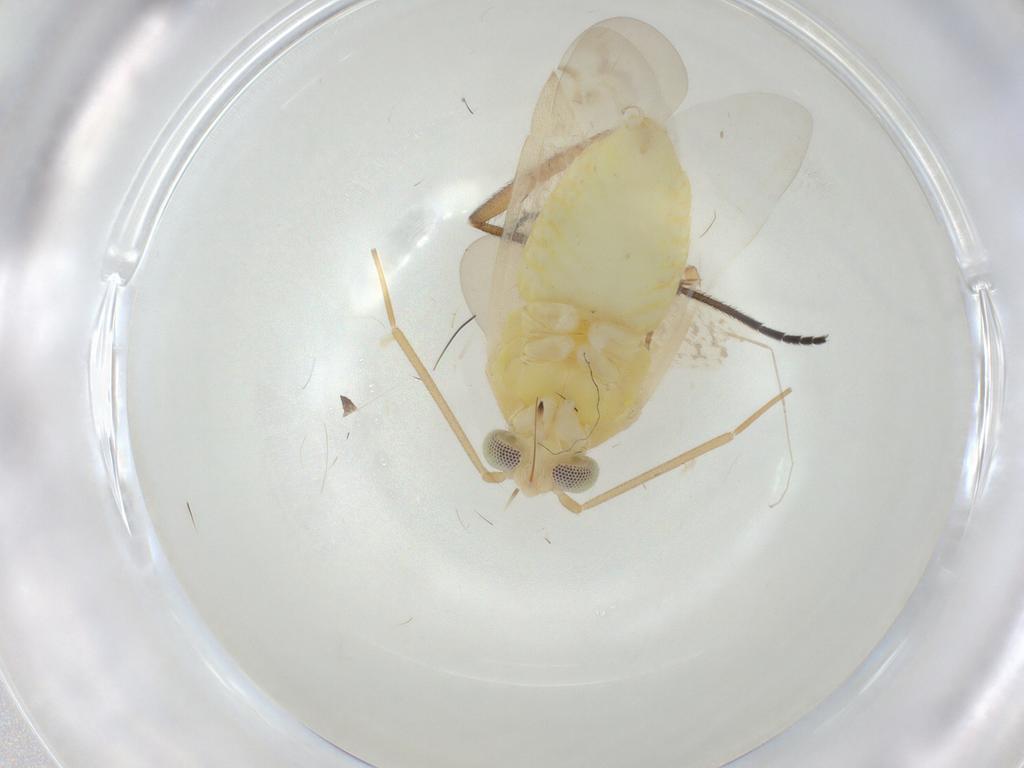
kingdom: Animalia
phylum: Arthropoda
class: Insecta
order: Hemiptera
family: Miridae
